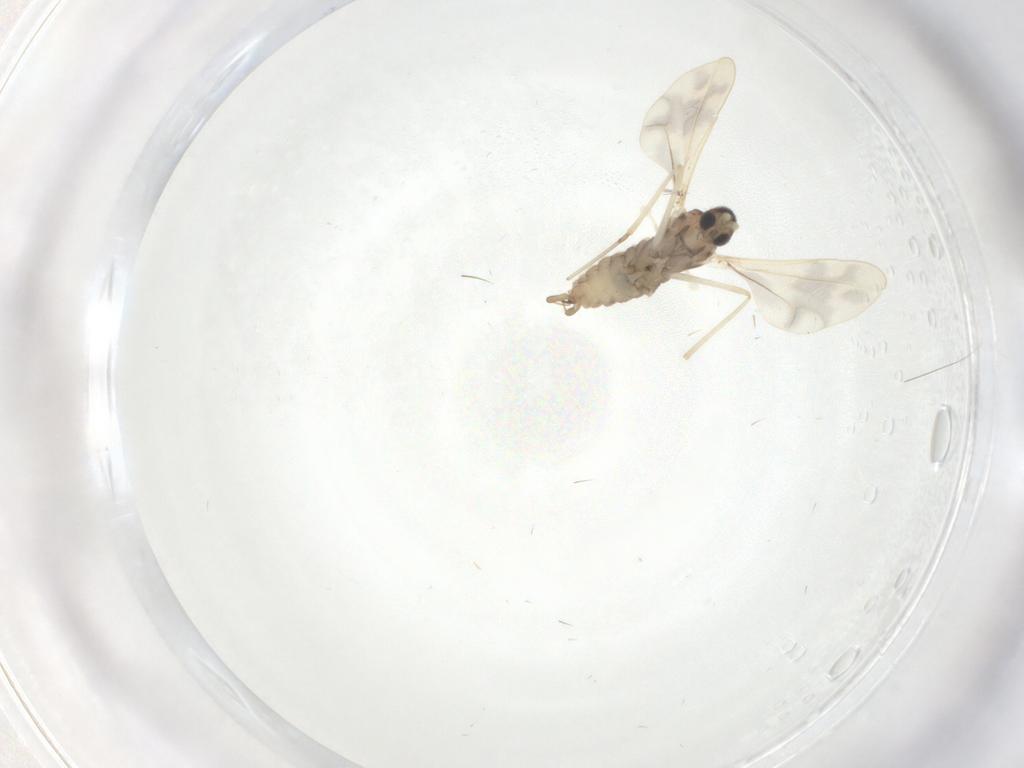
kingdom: Animalia
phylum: Arthropoda
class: Insecta
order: Diptera
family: Cecidomyiidae
